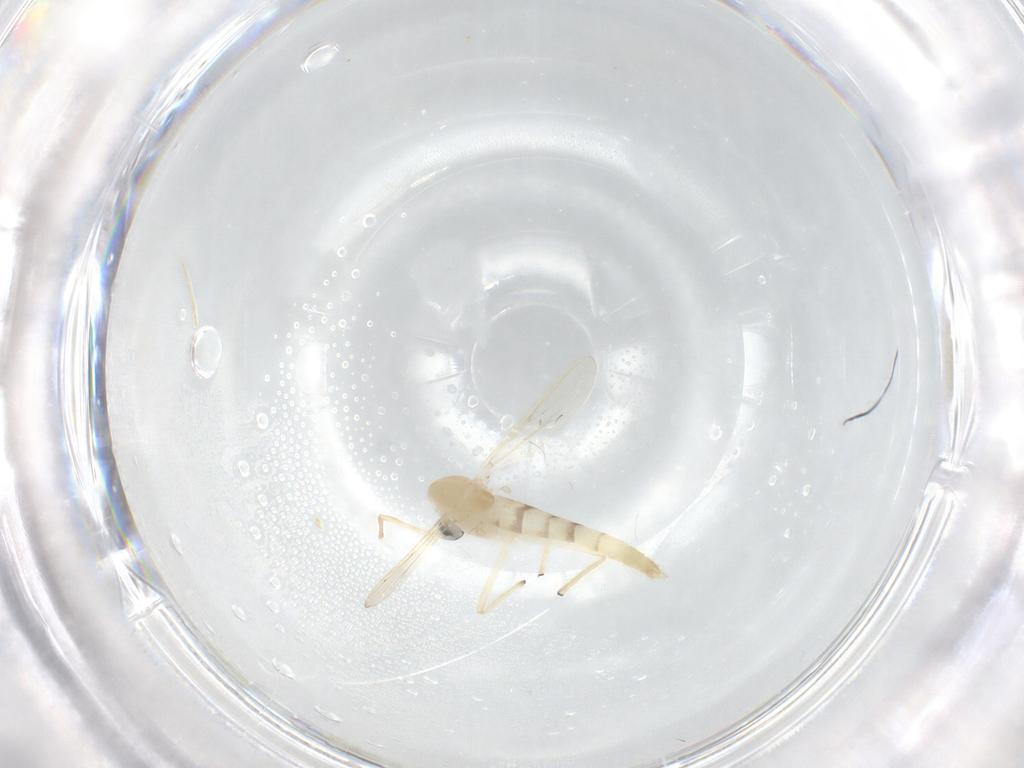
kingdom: Animalia
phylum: Arthropoda
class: Insecta
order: Diptera
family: Chironomidae
